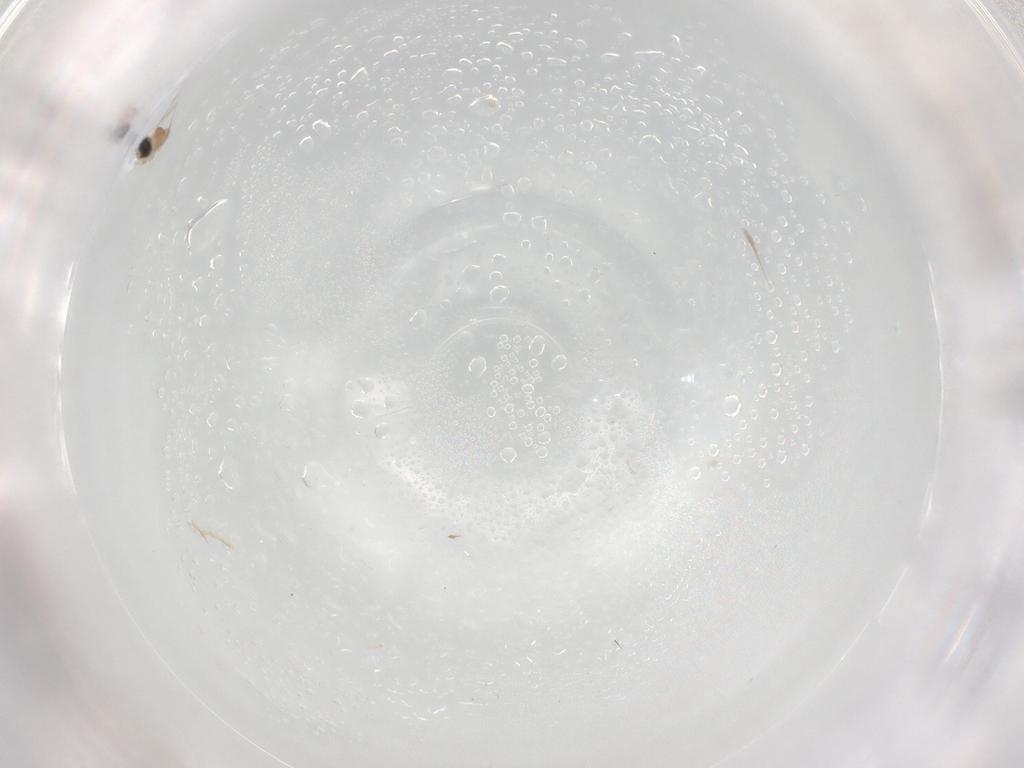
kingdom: Animalia
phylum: Arthropoda
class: Insecta
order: Diptera
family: Cecidomyiidae
